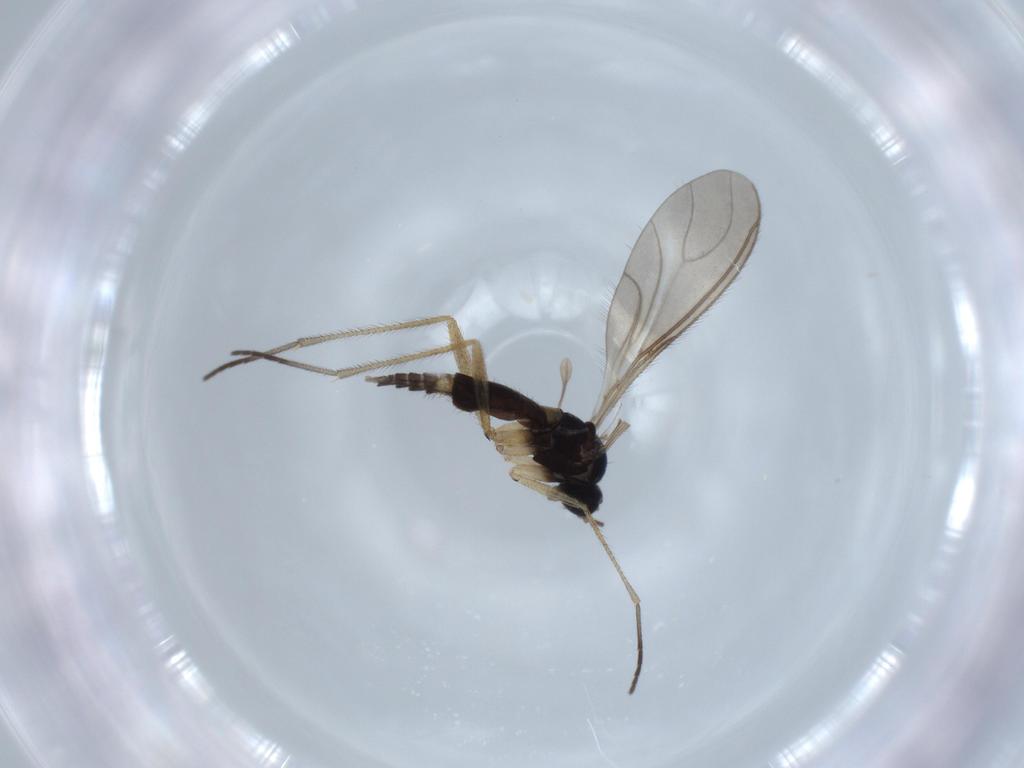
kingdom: Animalia
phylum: Arthropoda
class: Insecta
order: Diptera
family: Sciaridae
